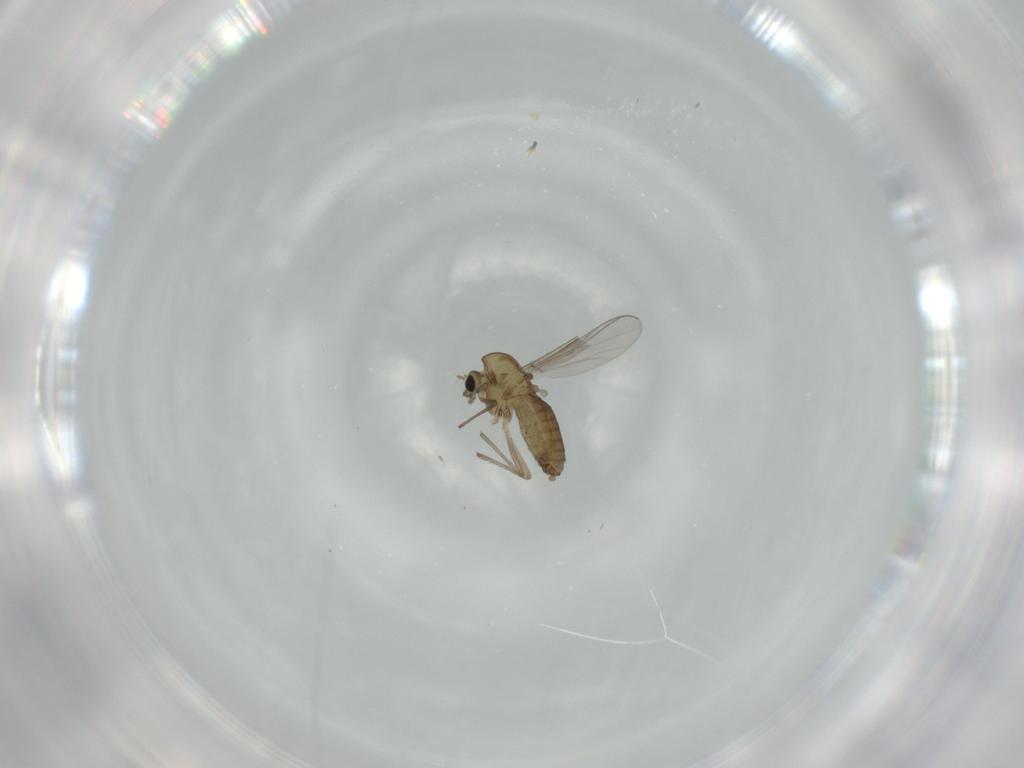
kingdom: Animalia
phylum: Arthropoda
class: Insecta
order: Diptera
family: Chironomidae
